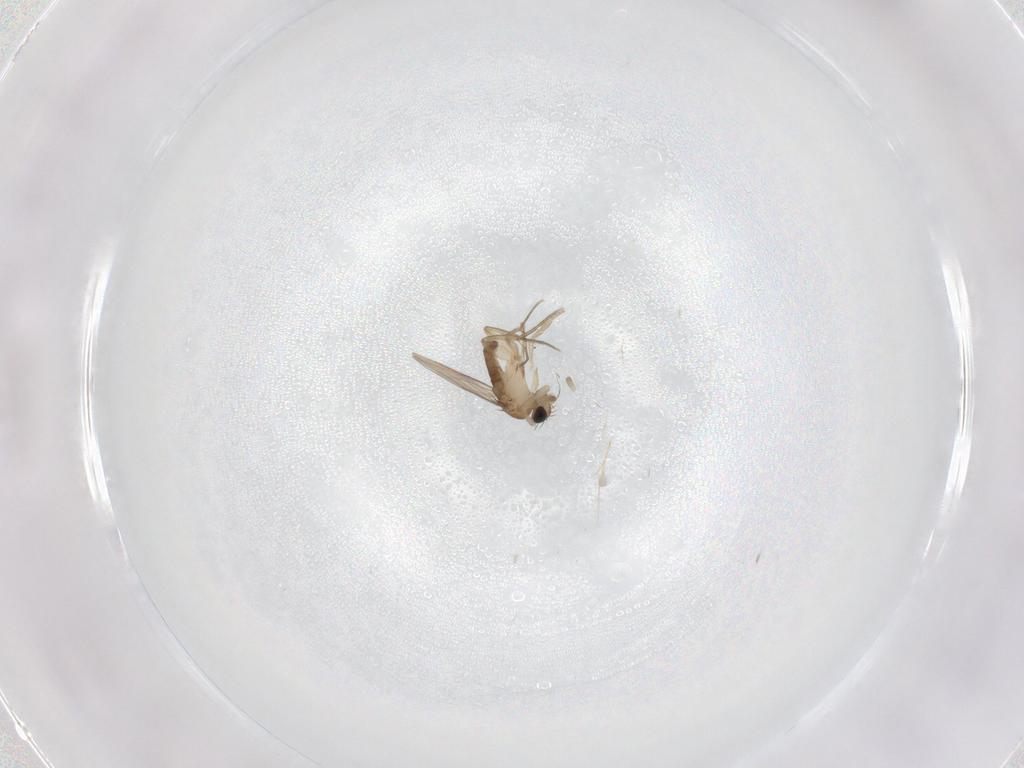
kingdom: Animalia
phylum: Arthropoda
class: Insecta
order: Diptera
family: Phoridae
